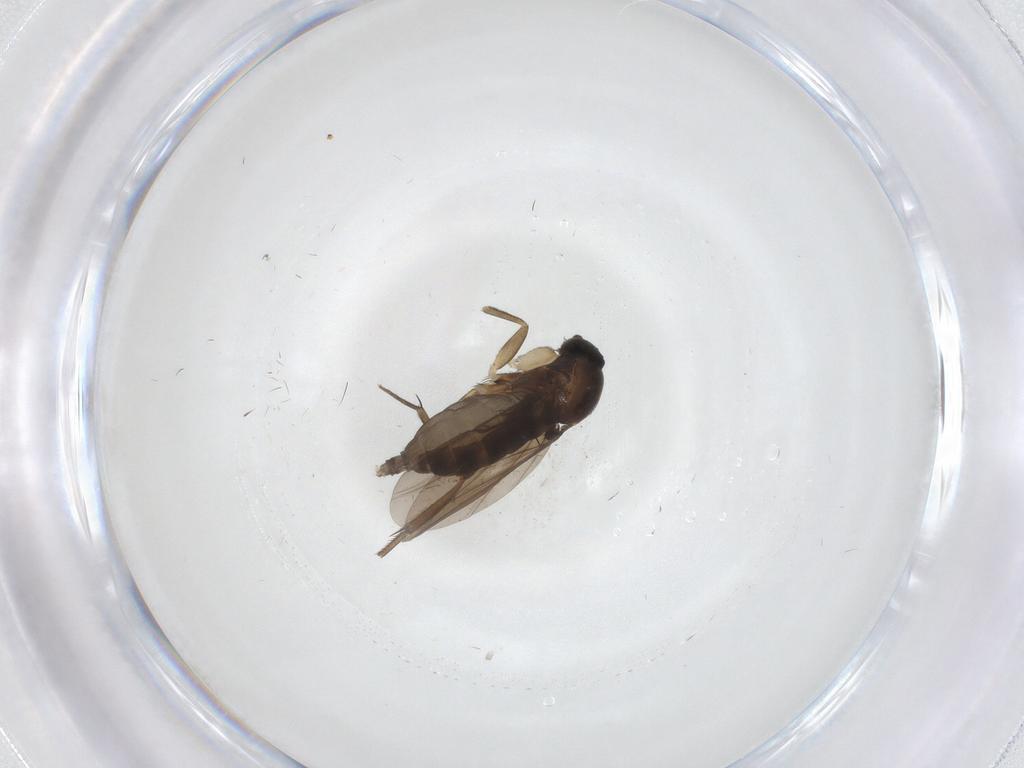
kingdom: Animalia
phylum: Arthropoda
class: Insecta
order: Diptera
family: Phoridae
